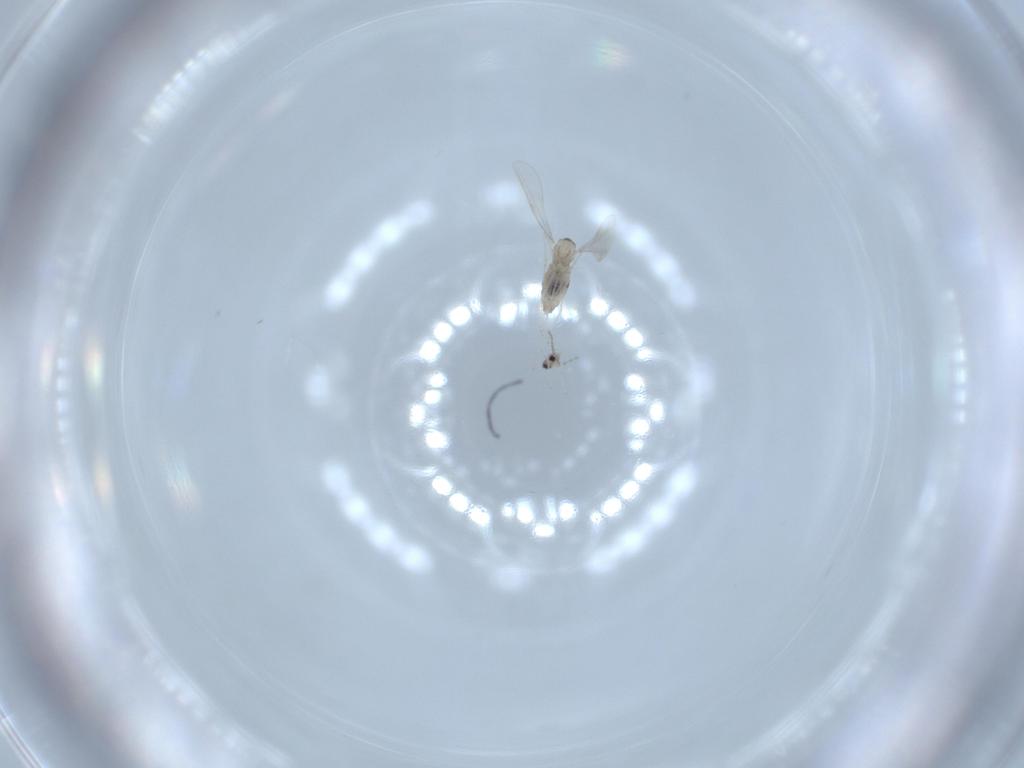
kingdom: Animalia
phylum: Arthropoda
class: Insecta
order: Diptera
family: Cecidomyiidae
